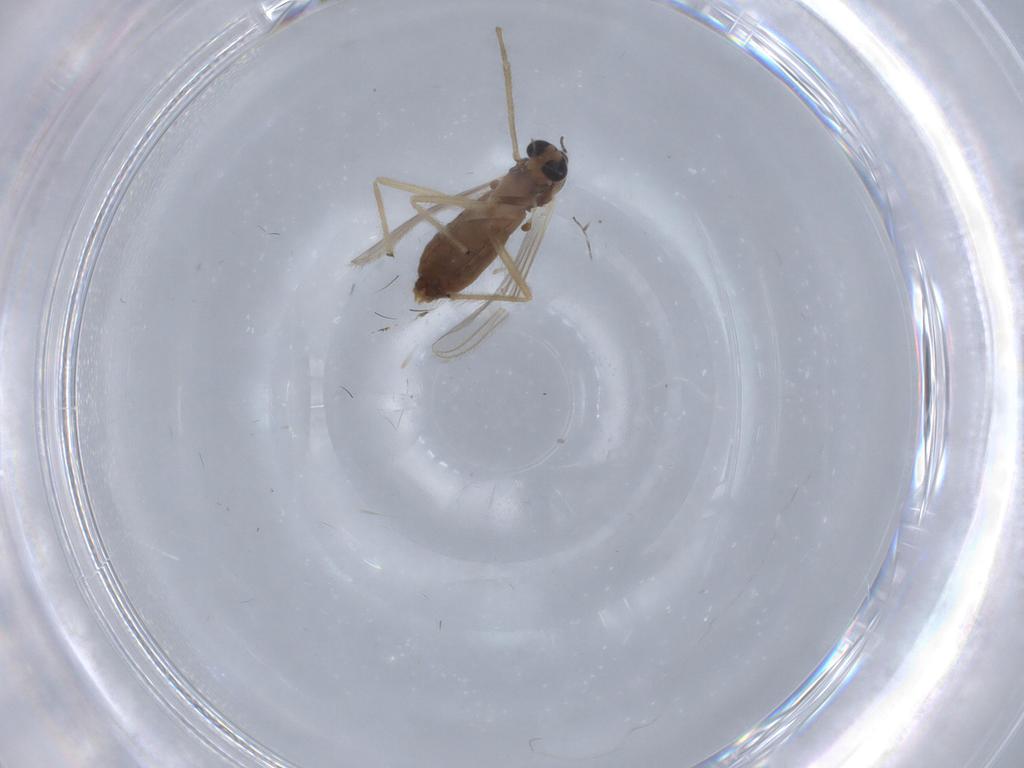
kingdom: Animalia
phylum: Arthropoda
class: Insecta
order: Diptera
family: Chironomidae
